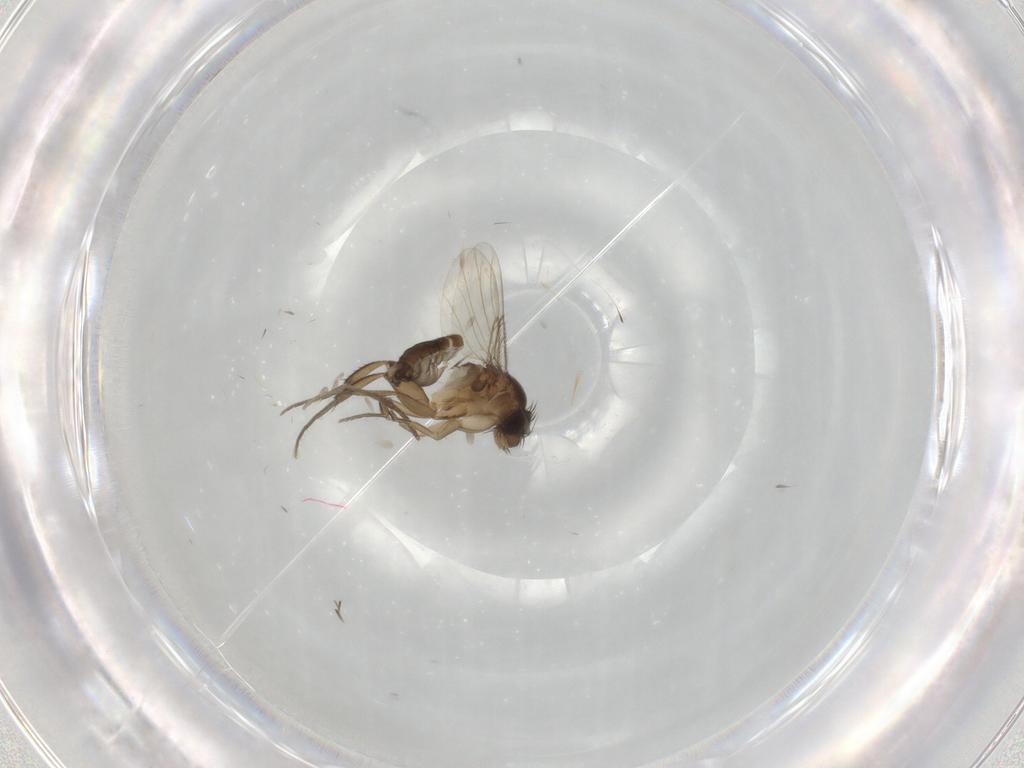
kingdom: Animalia
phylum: Arthropoda
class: Insecta
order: Diptera
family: Phoridae
